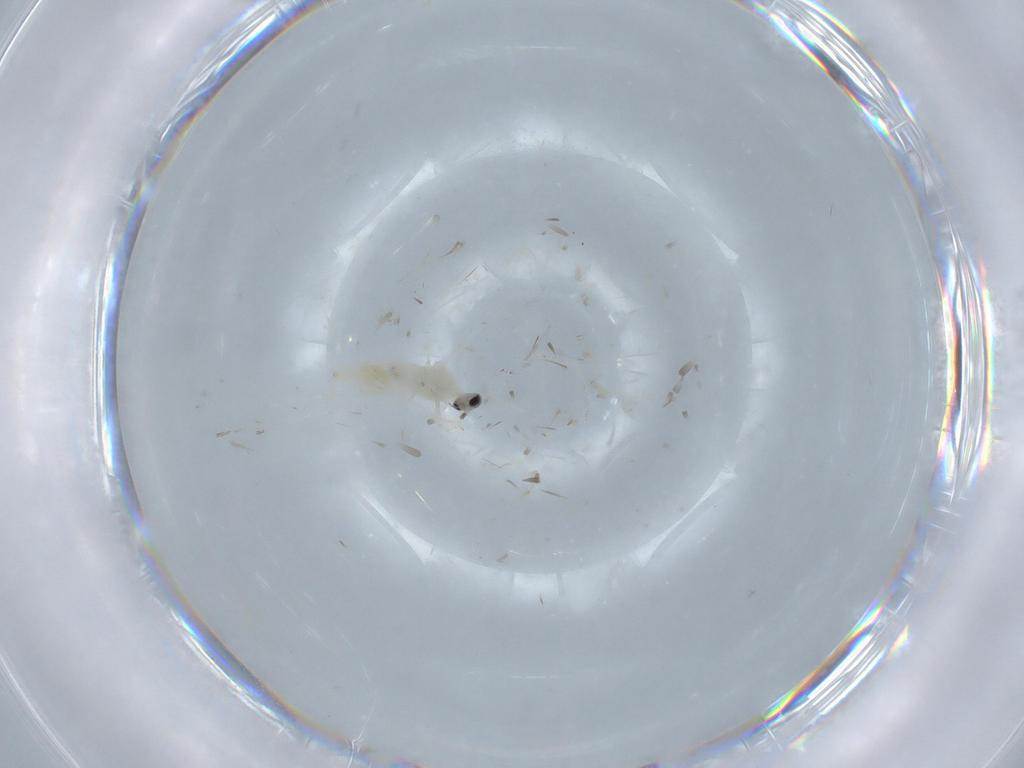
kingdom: Animalia
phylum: Arthropoda
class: Insecta
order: Diptera
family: Cecidomyiidae
